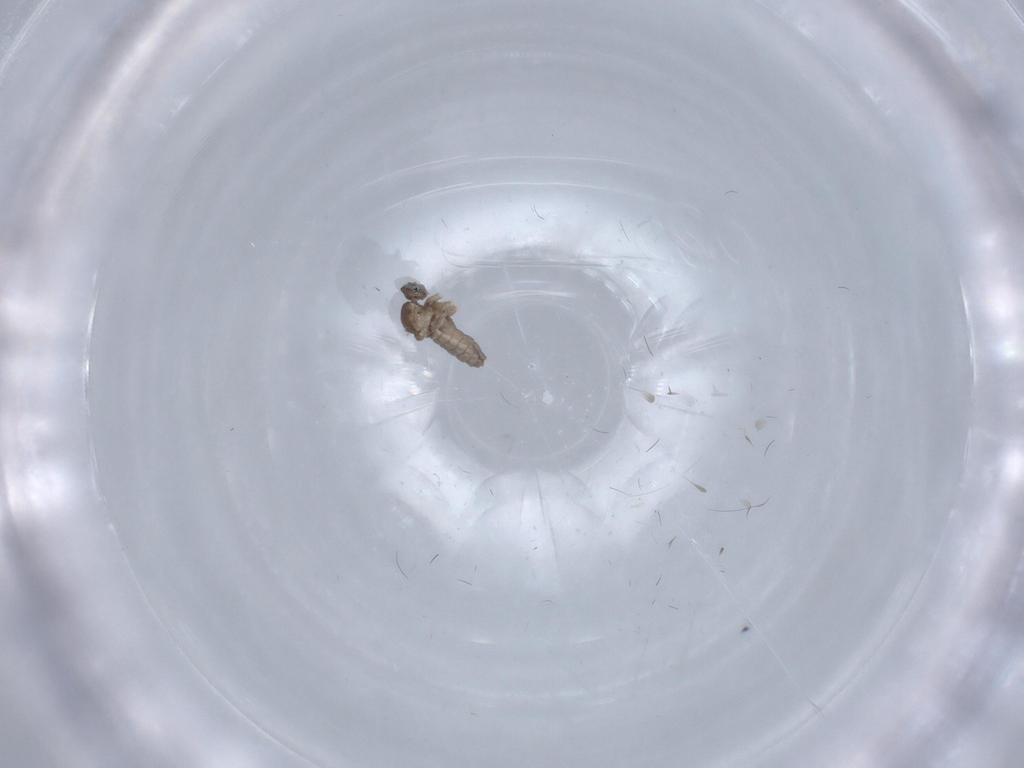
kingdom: Animalia
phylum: Arthropoda
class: Insecta
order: Diptera
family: Cecidomyiidae
